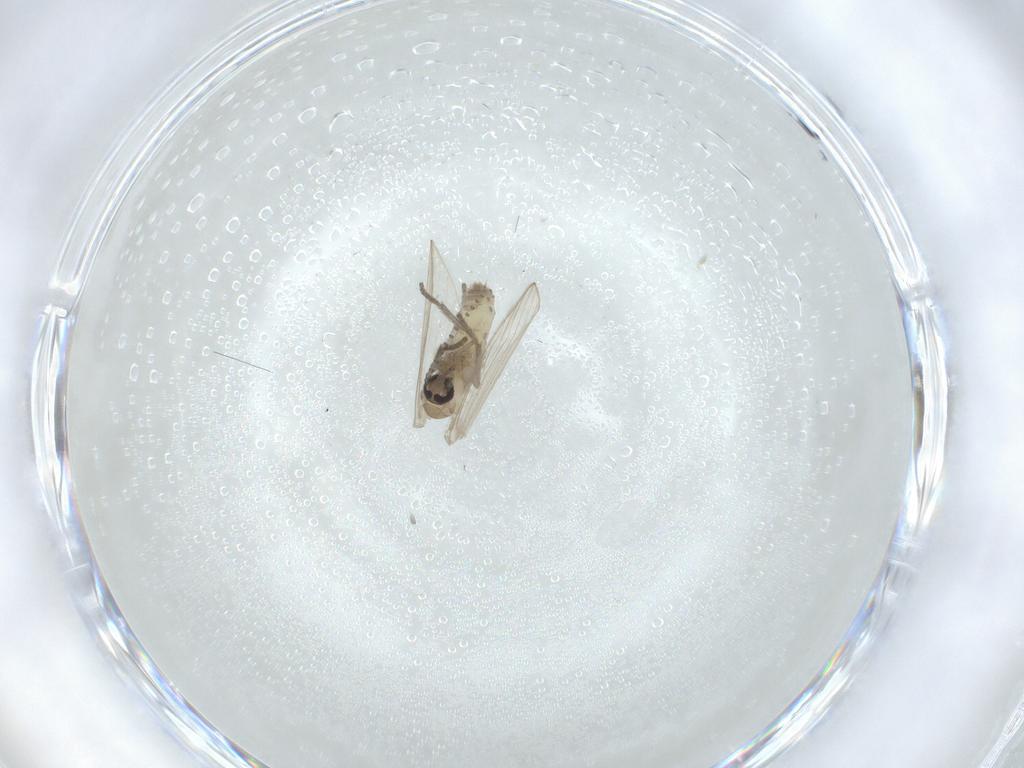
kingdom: Animalia
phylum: Arthropoda
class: Insecta
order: Diptera
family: Psychodidae
